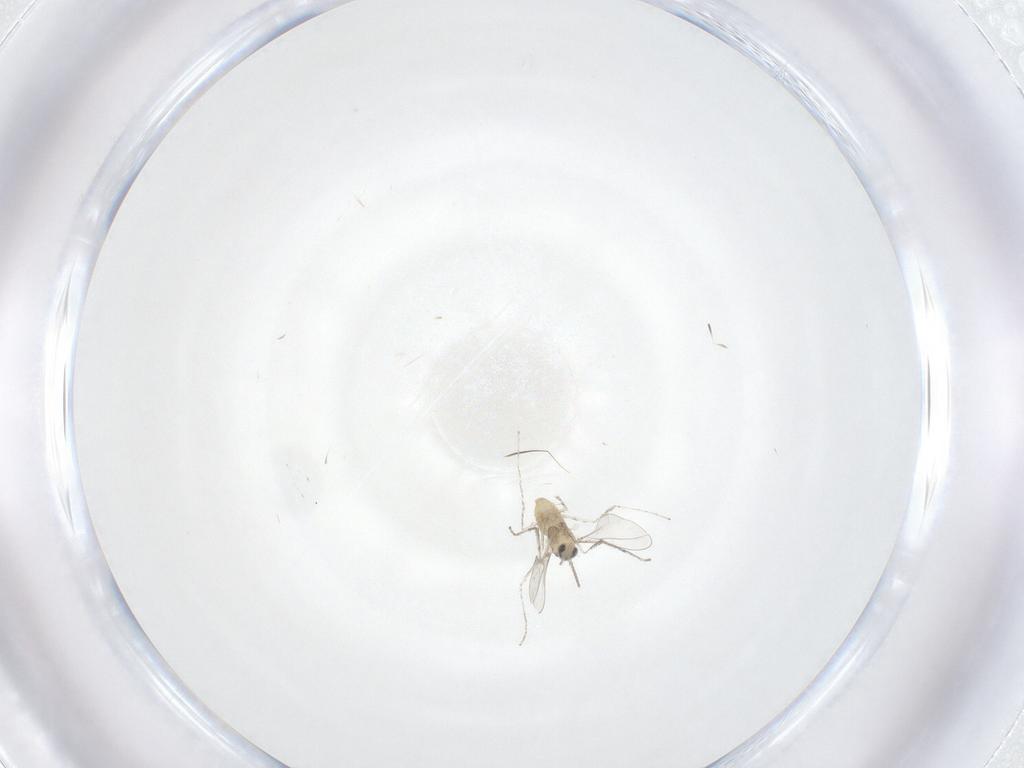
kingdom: Animalia
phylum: Arthropoda
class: Insecta
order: Diptera
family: Cecidomyiidae
